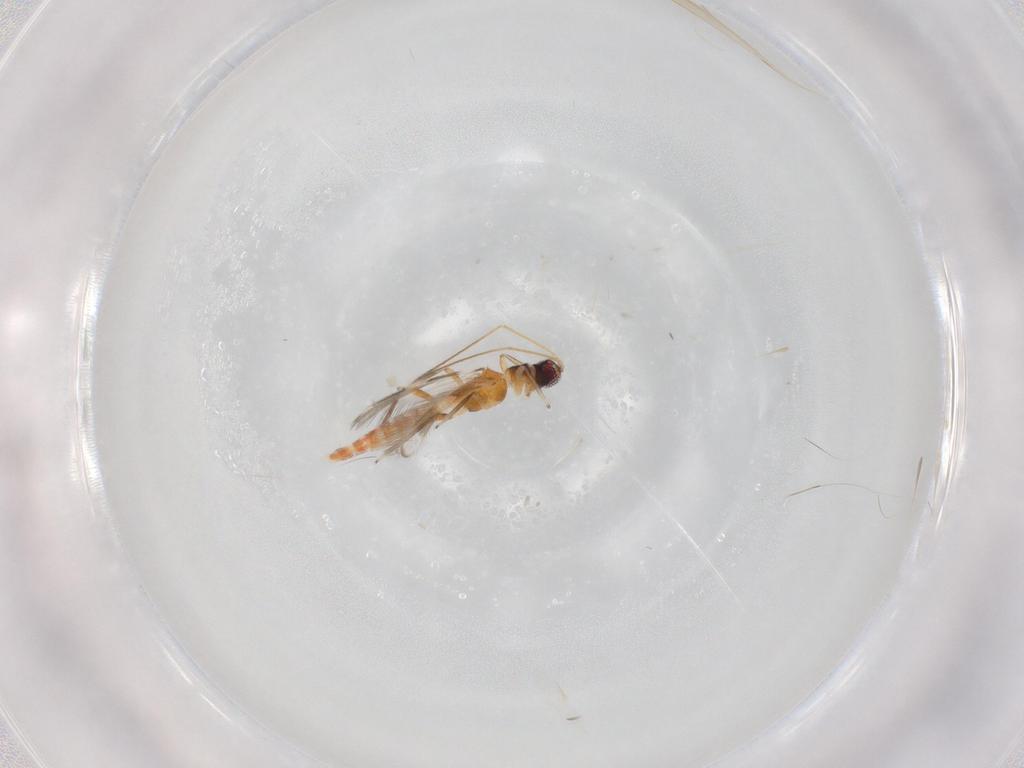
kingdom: Animalia
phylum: Arthropoda
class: Insecta
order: Thysanoptera
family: Aeolothripidae
